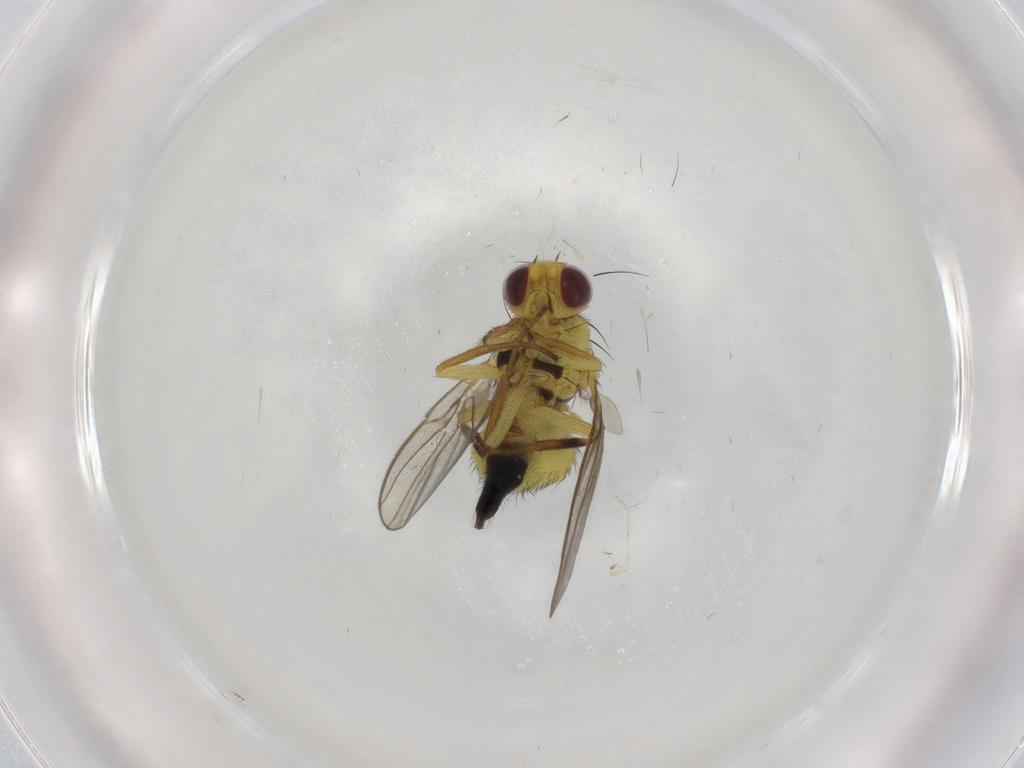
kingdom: Animalia
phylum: Arthropoda
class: Insecta
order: Diptera
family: Agromyzidae
